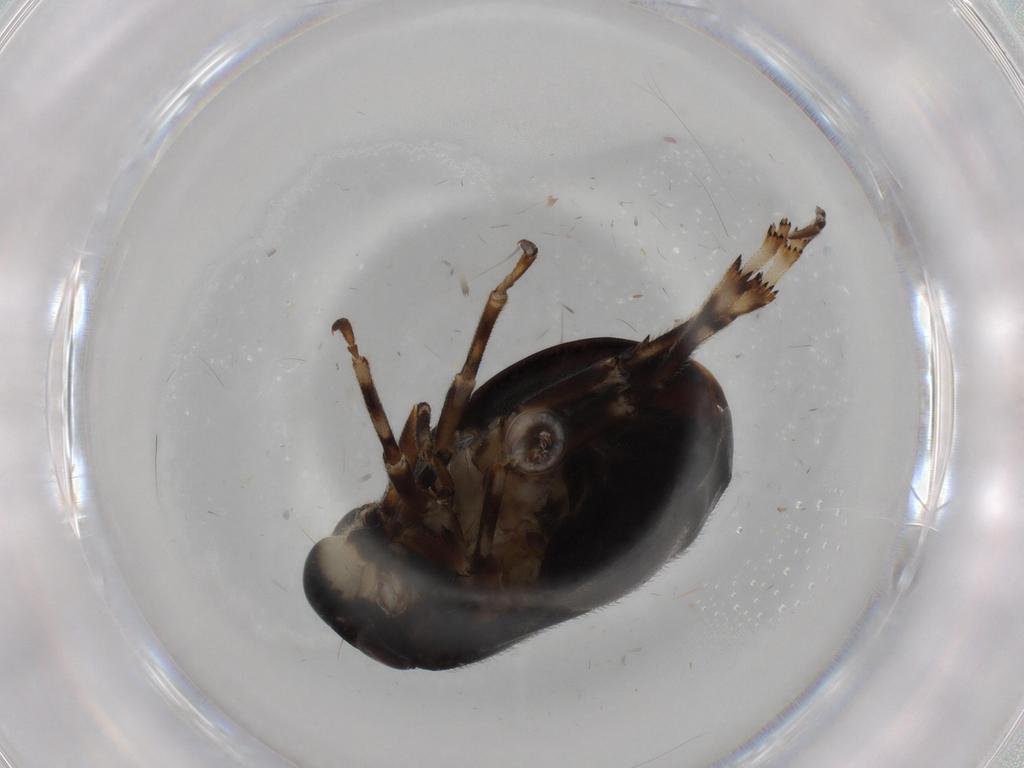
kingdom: Animalia
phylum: Arthropoda
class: Insecta
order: Hemiptera
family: Clastopteridae
